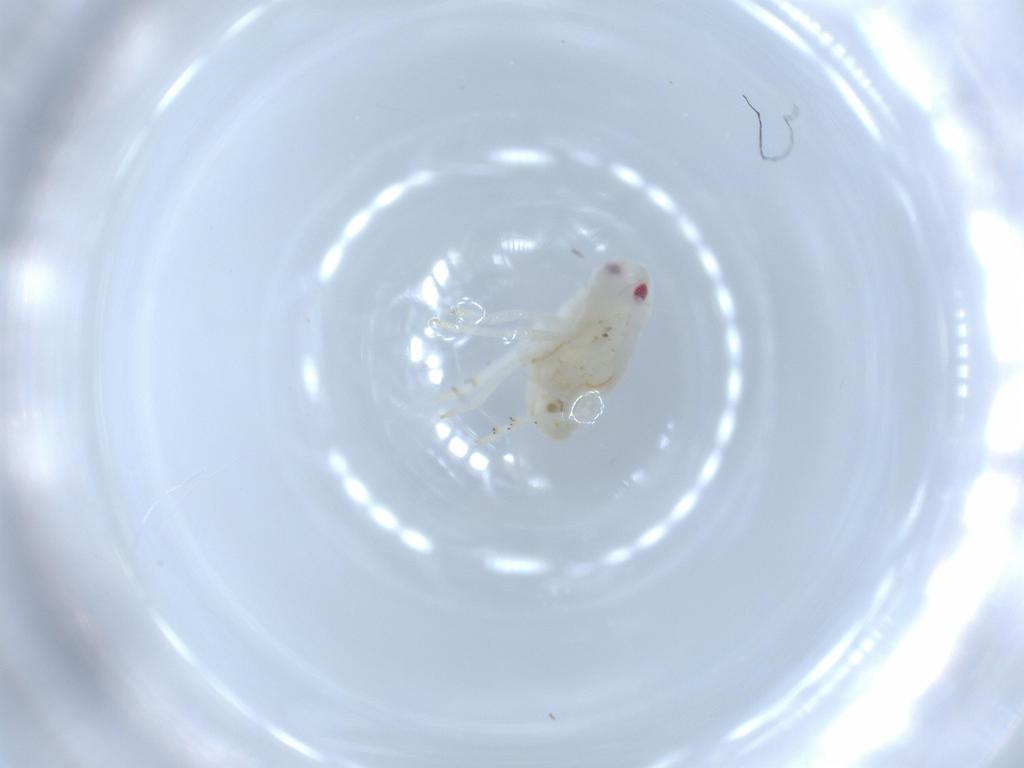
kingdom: Animalia
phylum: Arthropoda
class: Insecta
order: Hemiptera
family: Flatidae
